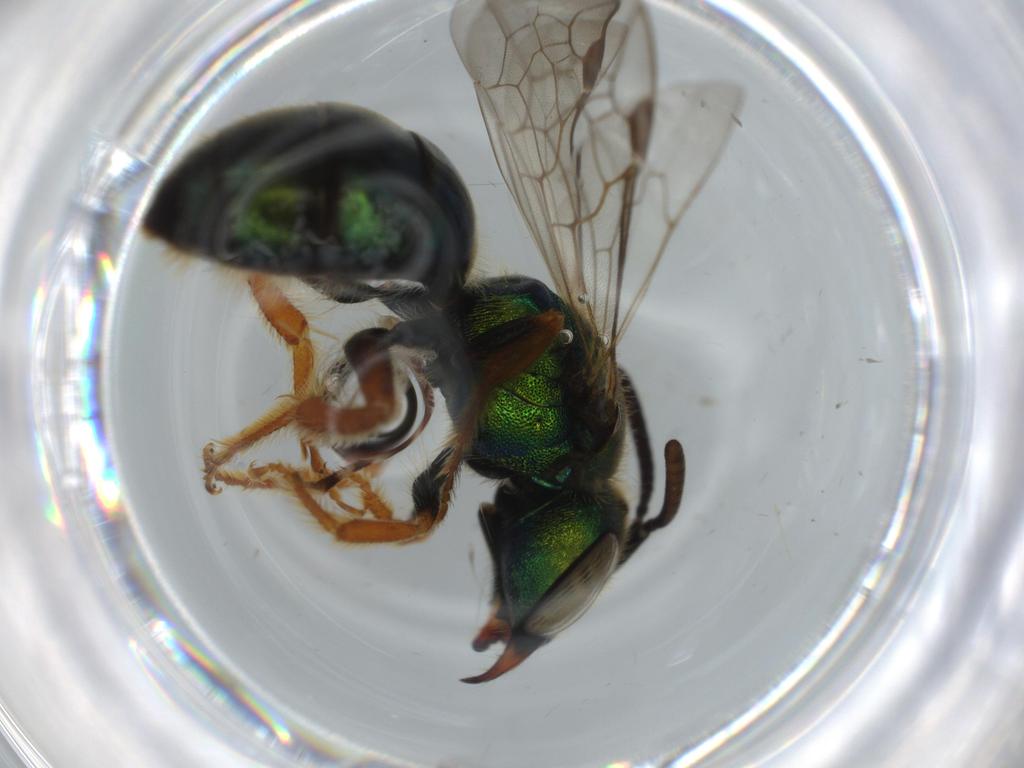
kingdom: Animalia
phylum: Arthropoda
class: Insecta
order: Hymenoptera
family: Halictidae
